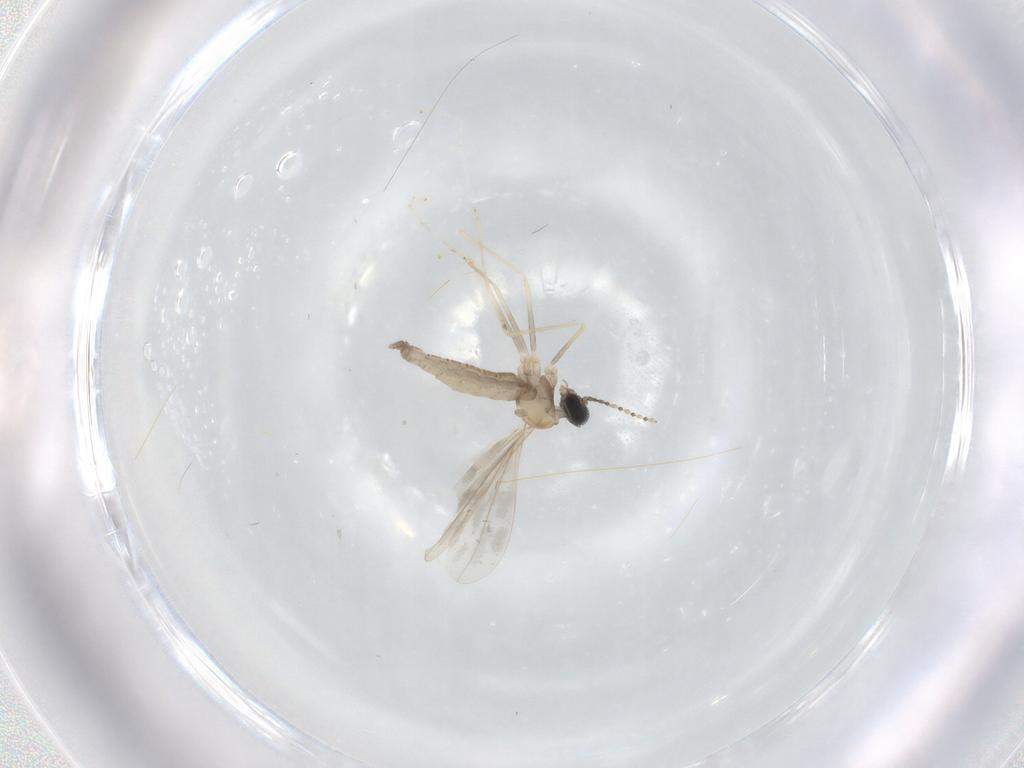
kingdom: Animalia
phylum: Arthropoda
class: Insecta
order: Diptera
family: Cecidomyiidae
